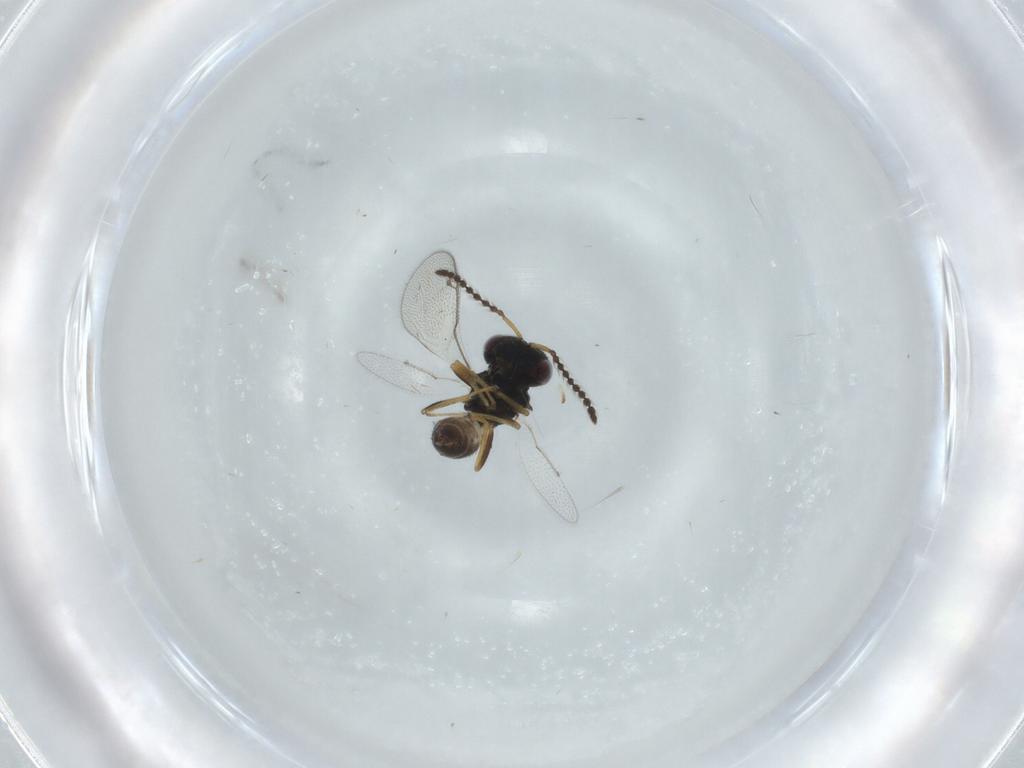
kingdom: Animalia
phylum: Arthropoda
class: Insecta
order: Hymenoptera
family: Pteromalidae
